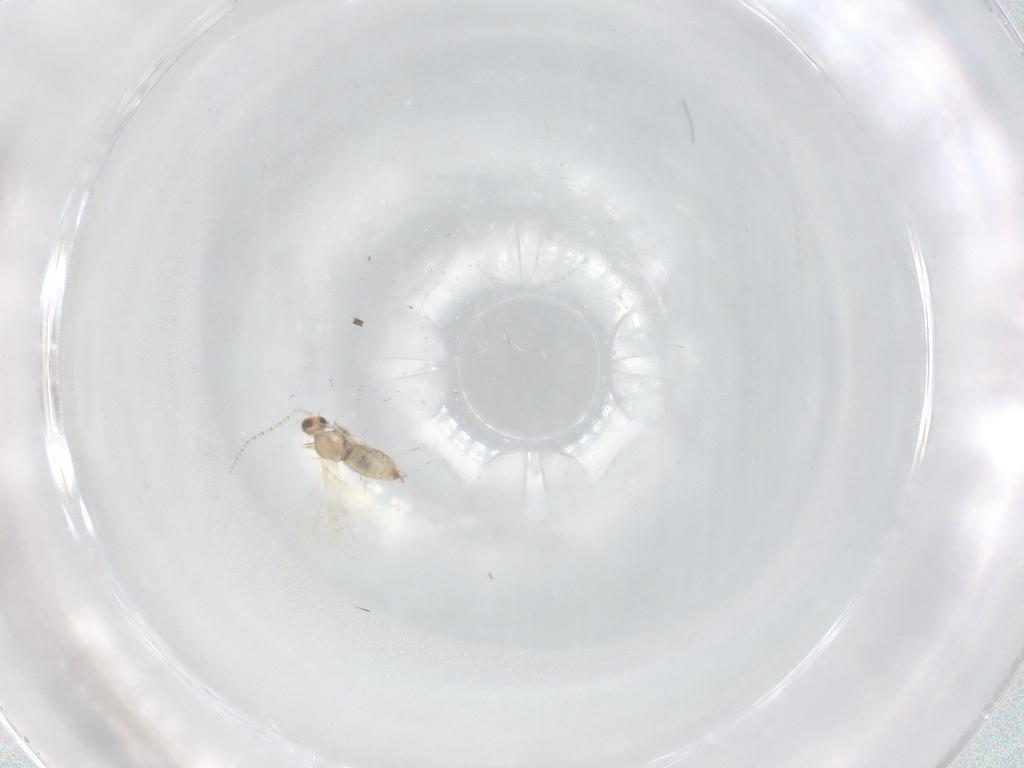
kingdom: Animalia
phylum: Arthropoda
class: Insecta
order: Diptera
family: Cecidomyiidae
